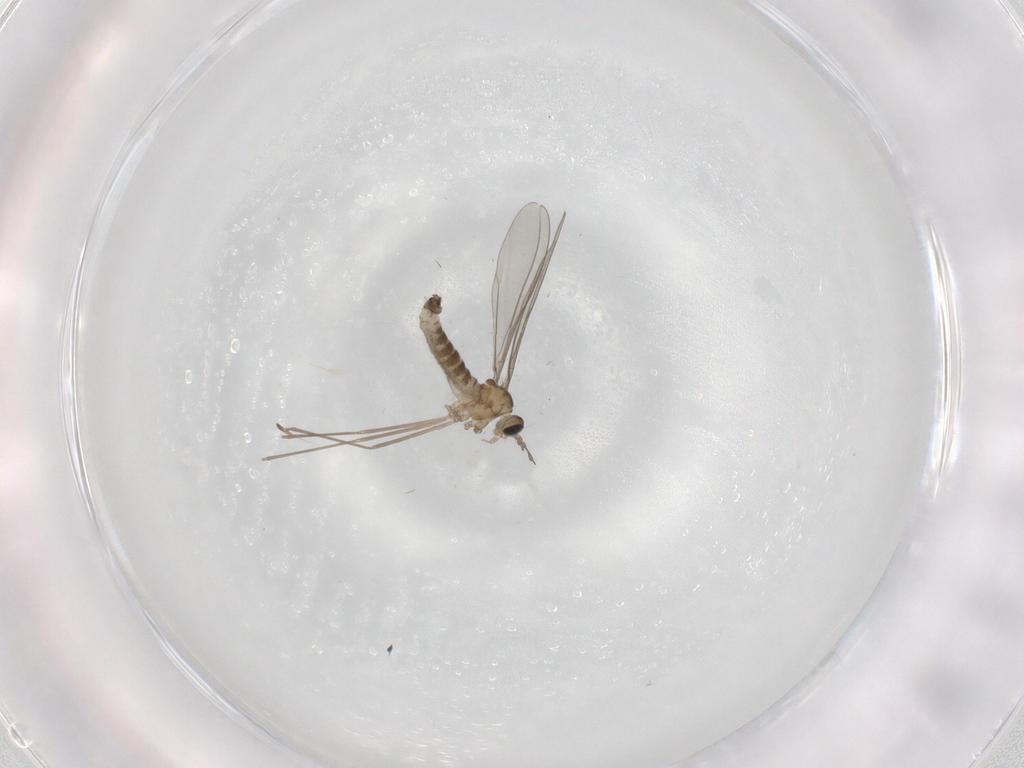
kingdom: Animalia
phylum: Arthropoda
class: Insecta
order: Diptera
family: Cecidomyiidae
